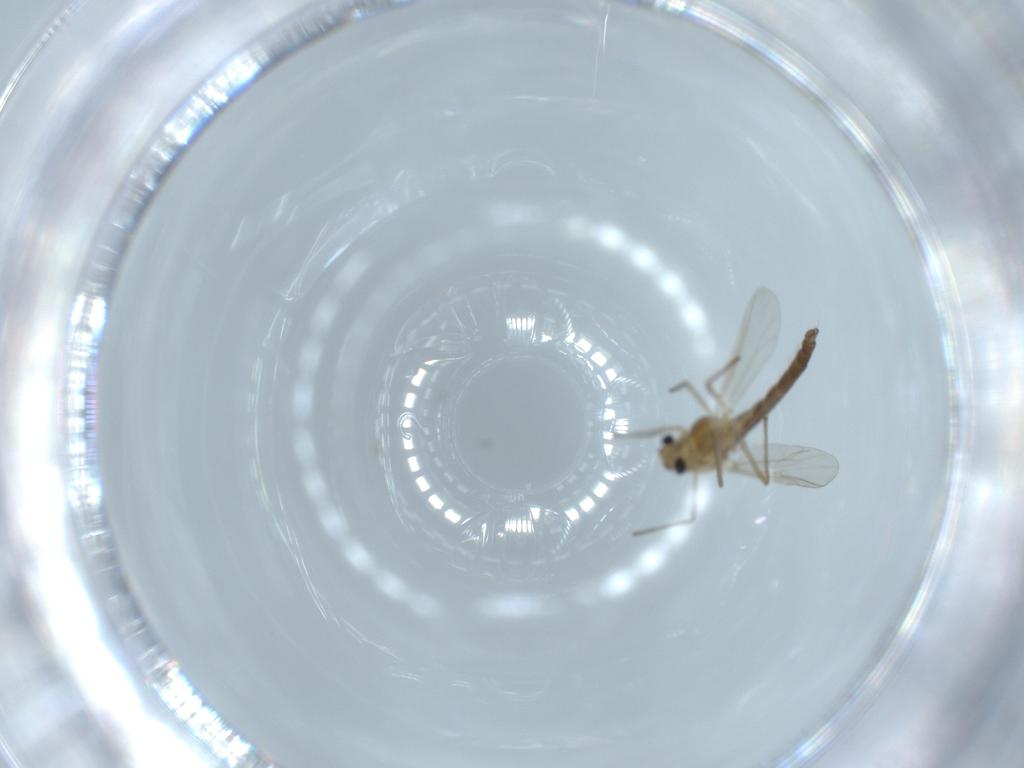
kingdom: Animalia
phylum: Arthropoda
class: Insecta
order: Diptera
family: Chironomidae
